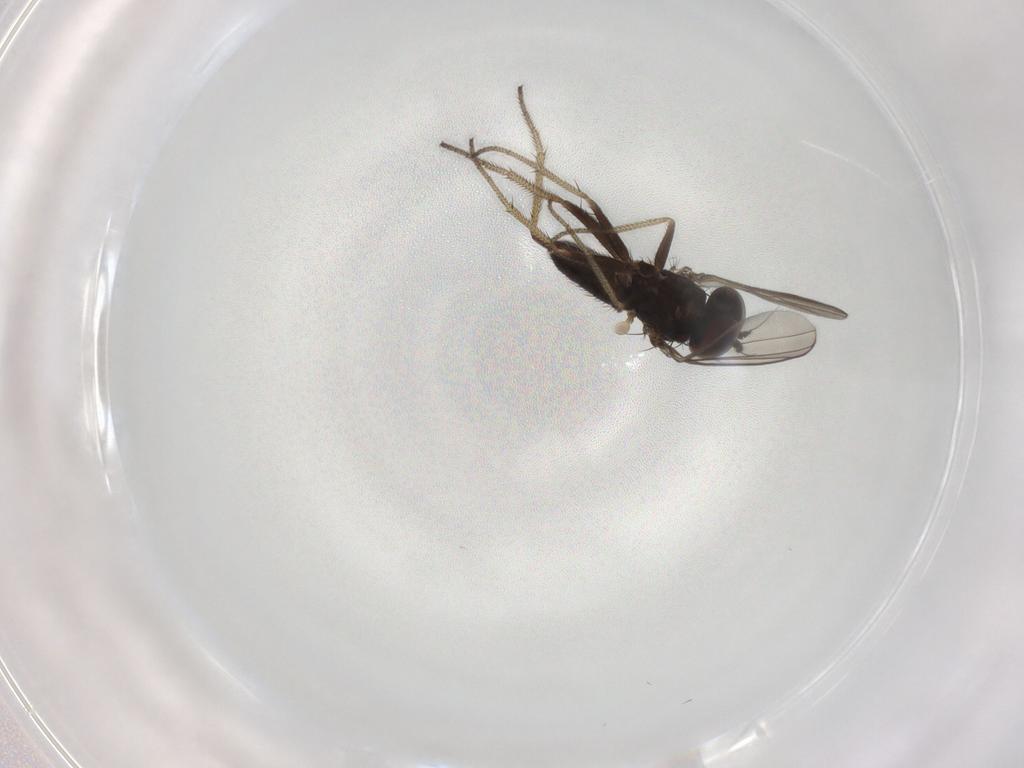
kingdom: Animalia
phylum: Arthropoda
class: Insecta
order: Diptera
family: Dolichopodidae
